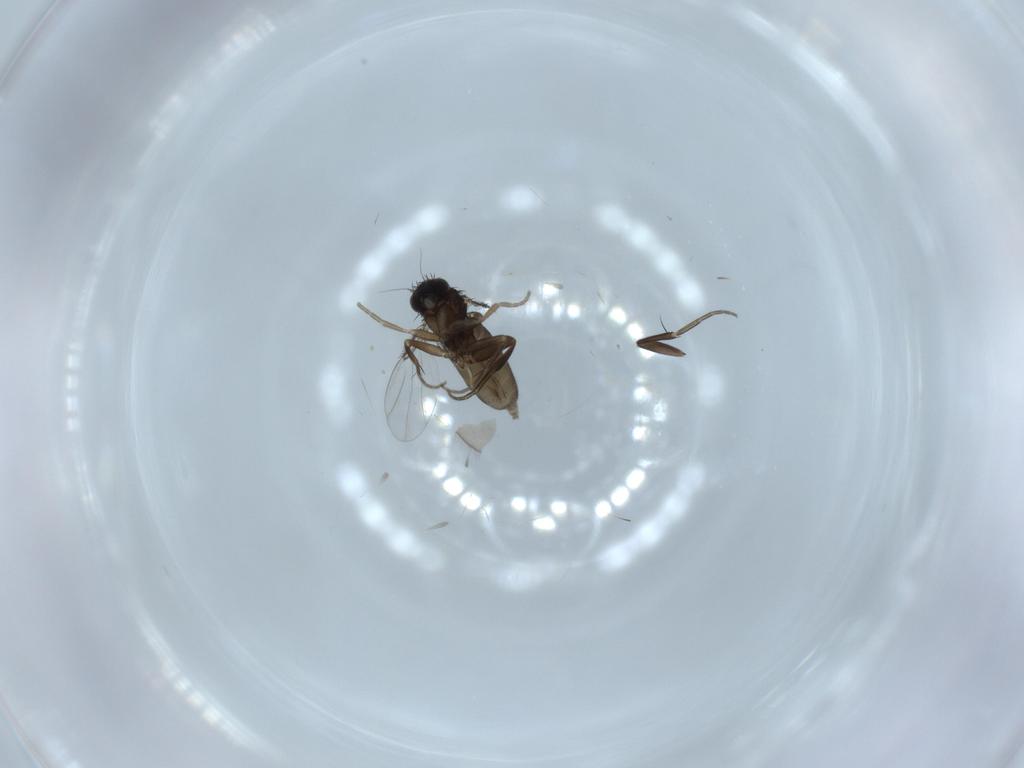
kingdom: Animalia
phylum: Arthropoda
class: Insecta
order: Diptera
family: Phoridae
